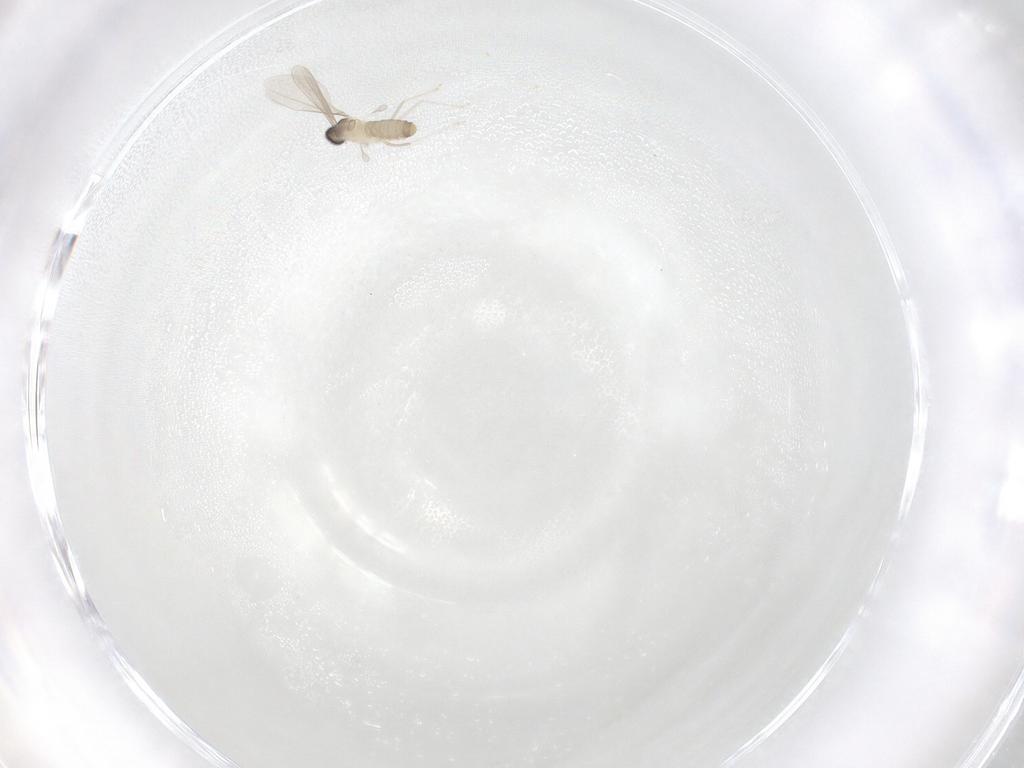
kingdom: Animalia
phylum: Arthropoda
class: Insecta
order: Diptera
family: Cecidomyiidae
